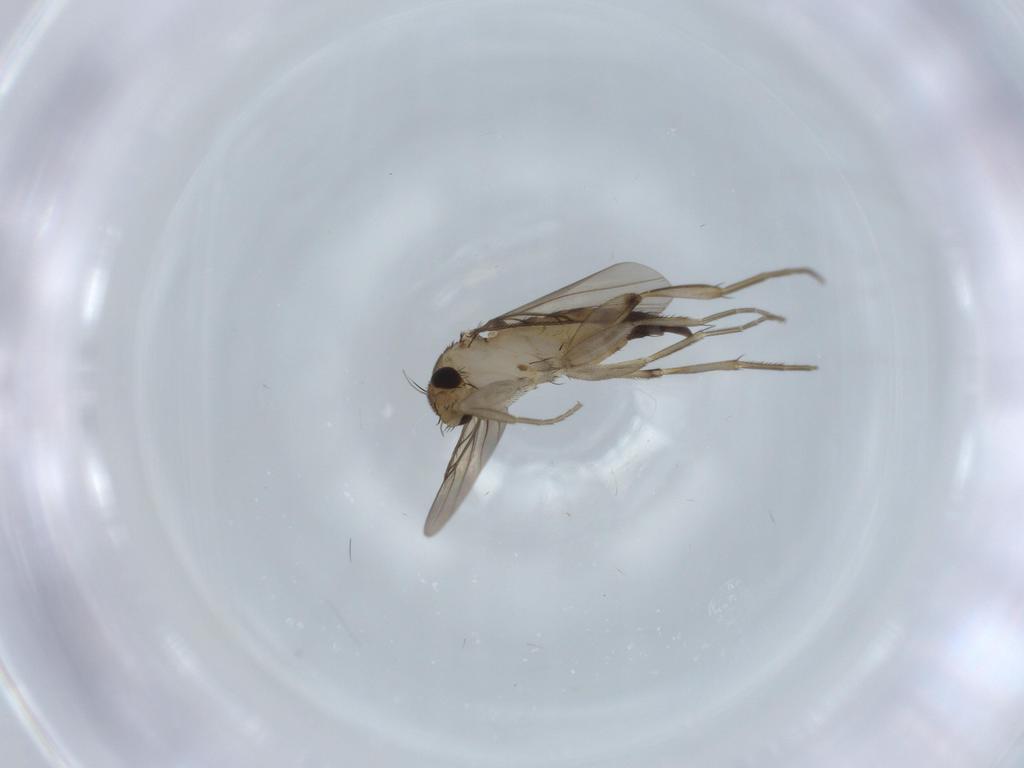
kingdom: Animalia
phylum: Arthropoda
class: Insecta
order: Diptera
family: Phoridae
